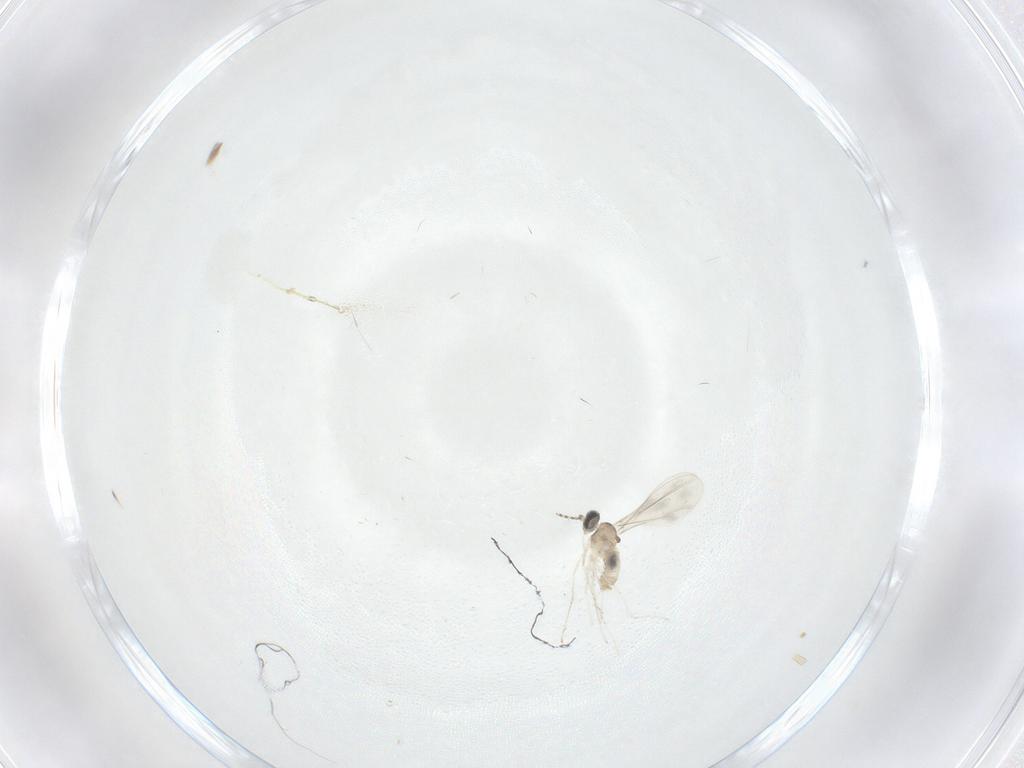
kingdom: Animalia
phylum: Arthropoda
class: Insecta
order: Diptera
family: Cecidomyiidae
